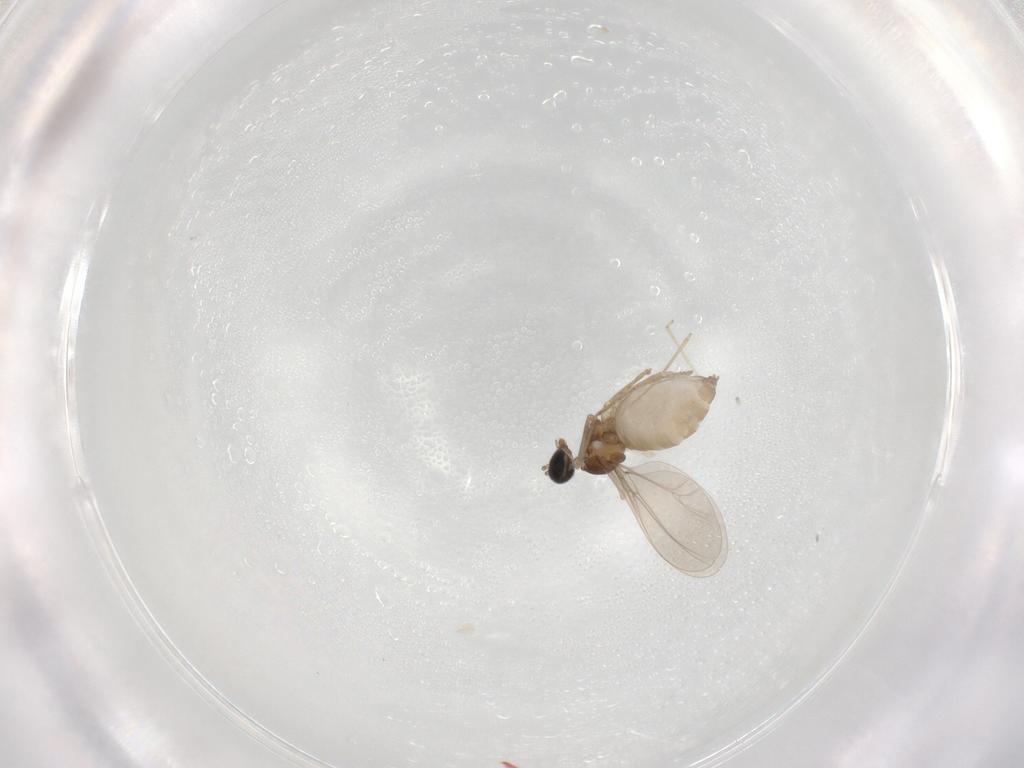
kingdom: Animalia
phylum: Arthropoda
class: Insecta
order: Diptera
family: Cecidomyiidae
